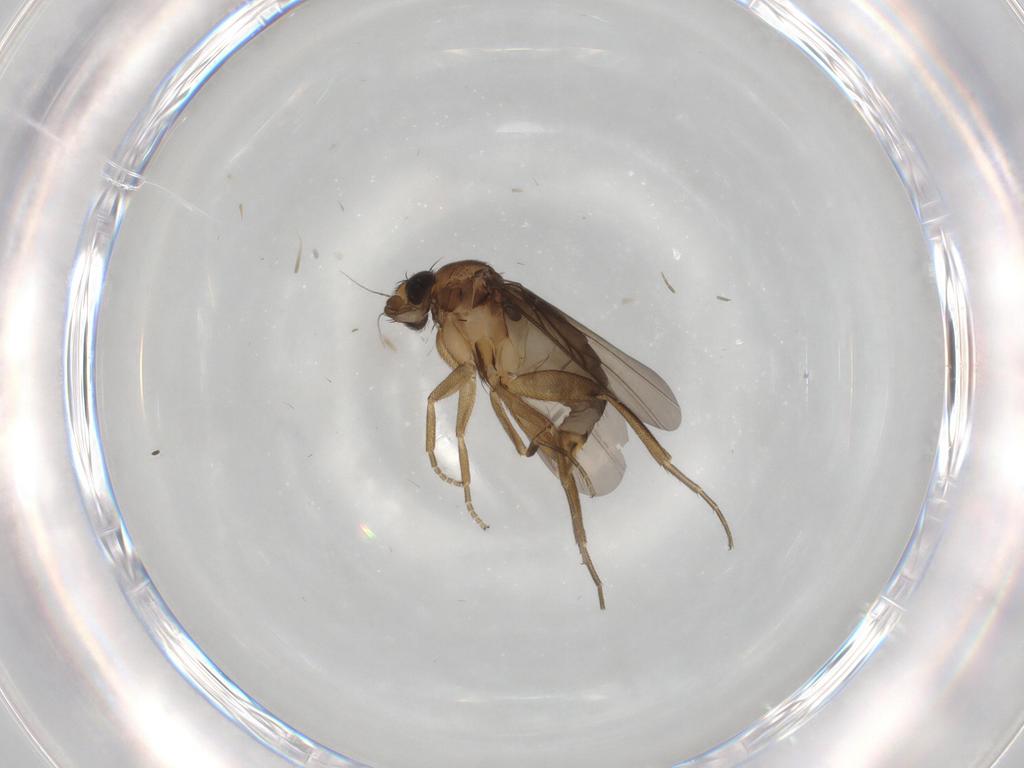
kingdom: Animalia
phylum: Arthropoda
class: Insecta
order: Diptera
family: Phoridae
